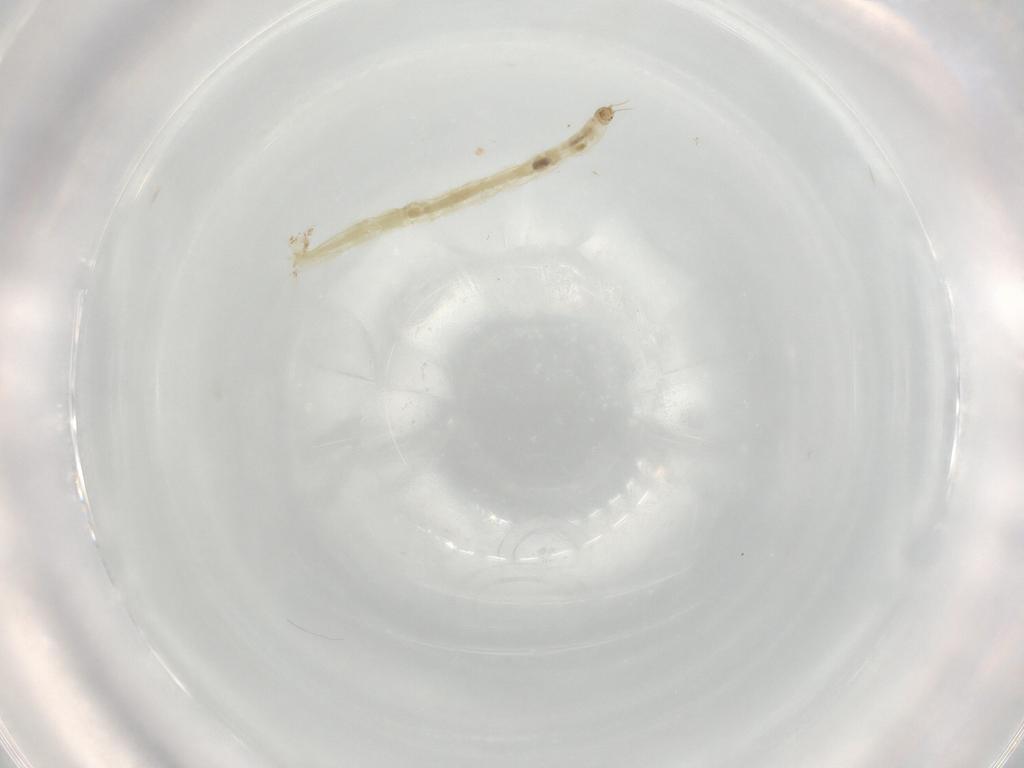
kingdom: Animalia
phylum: Arthropoda
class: Insecta
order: Diptera
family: Chironomidae
